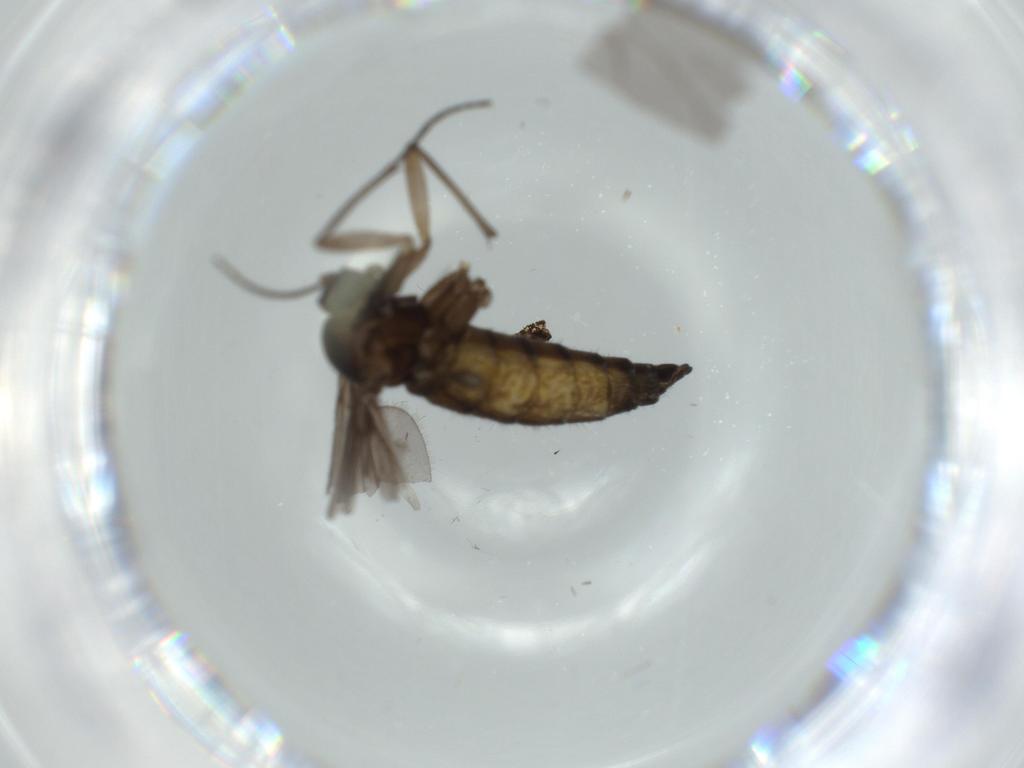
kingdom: Animalia
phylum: Arthropoda
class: Insecta
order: Diptera
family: Sciaridae
